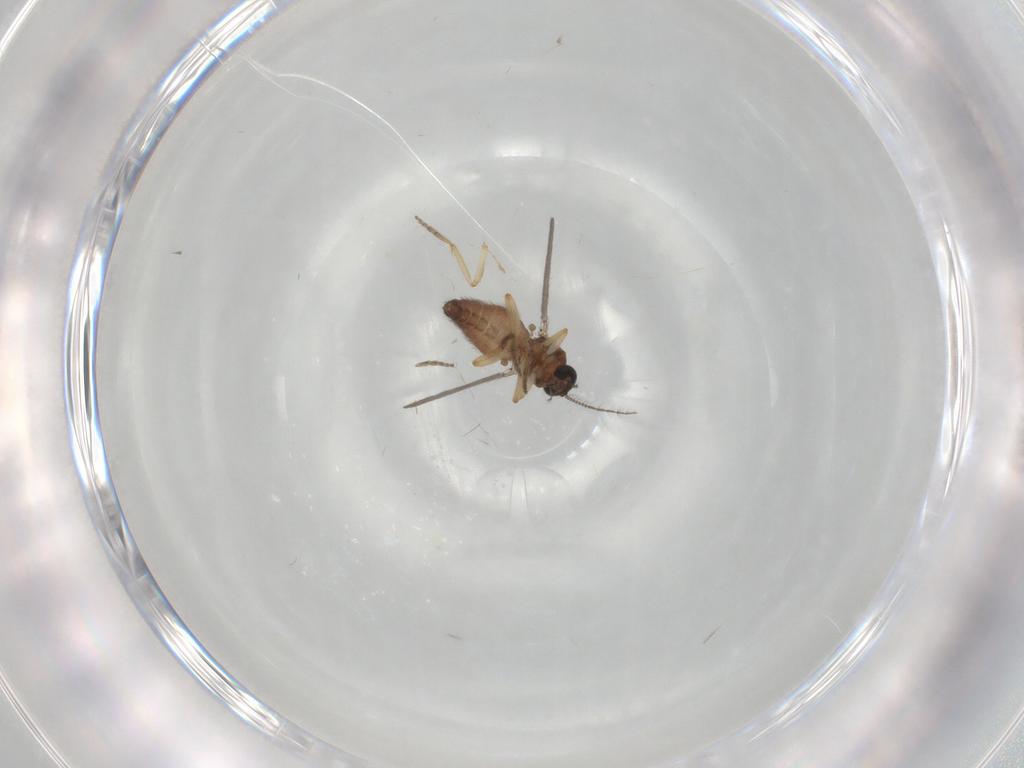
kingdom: Animalia
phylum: Arthropoda
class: Insecta
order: Diptera
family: Ceratopogonidae
